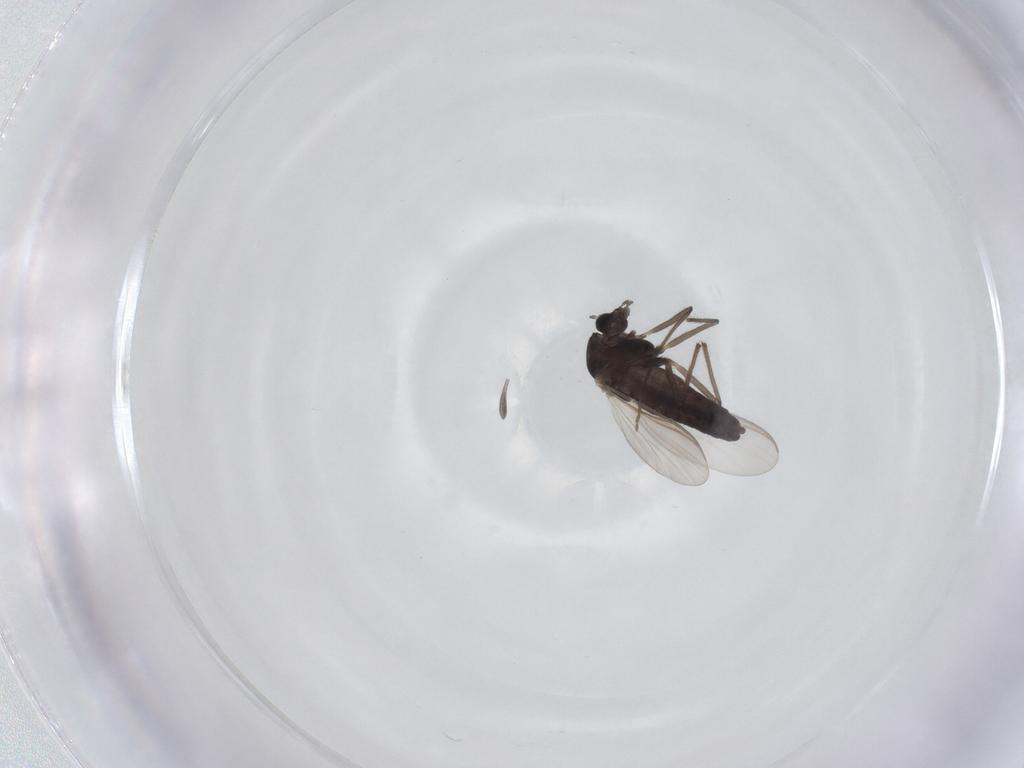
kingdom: Animalia
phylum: Arthropoda
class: Insecta
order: Diptera
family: Chironomidae
